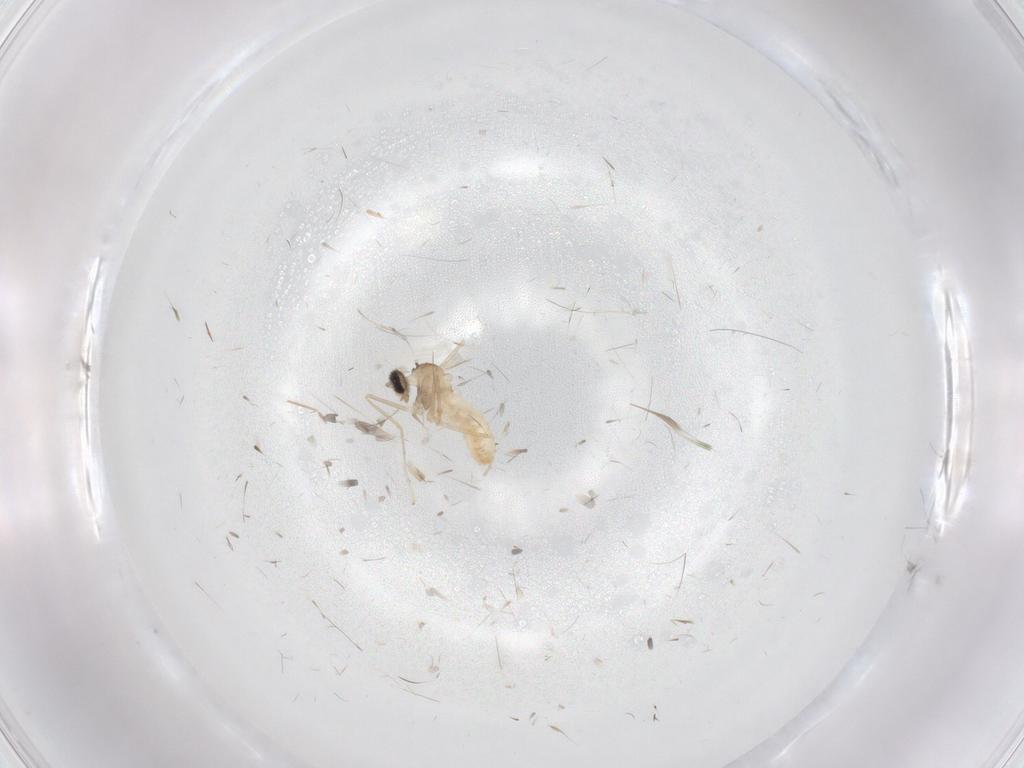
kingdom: Animalia
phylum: Arthropoda
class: Insecta
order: Diptera
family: Cecidomyiidae
